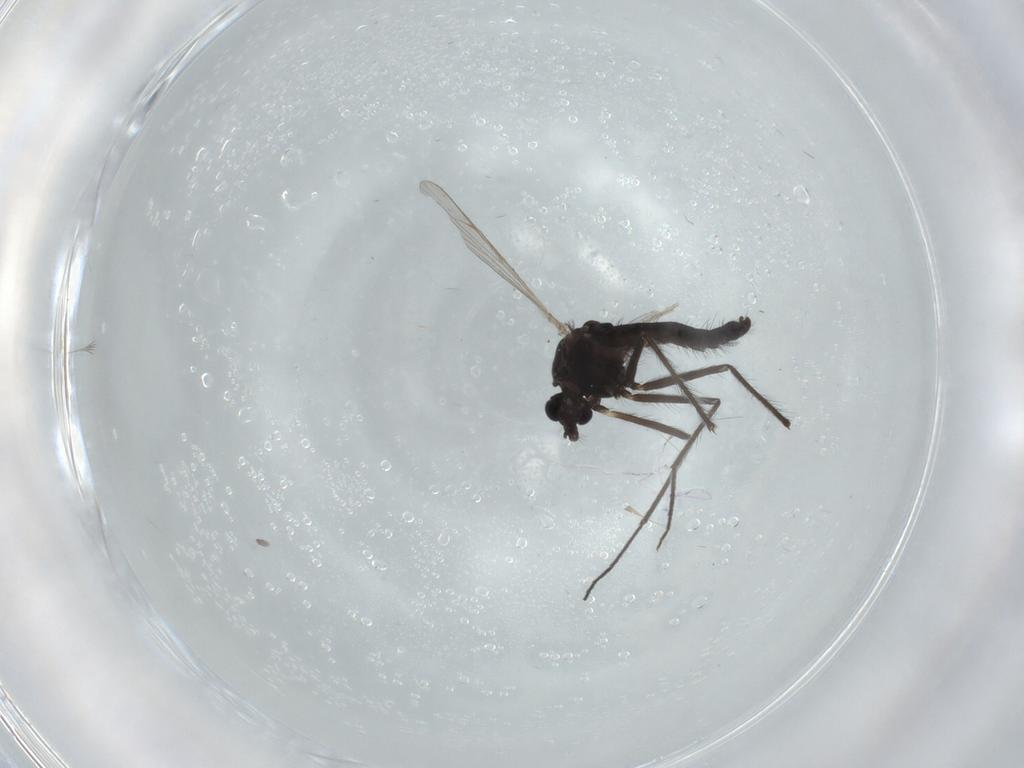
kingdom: Animalia
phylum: Arthropoda
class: Insecta
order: Diptera
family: Chironomidae
